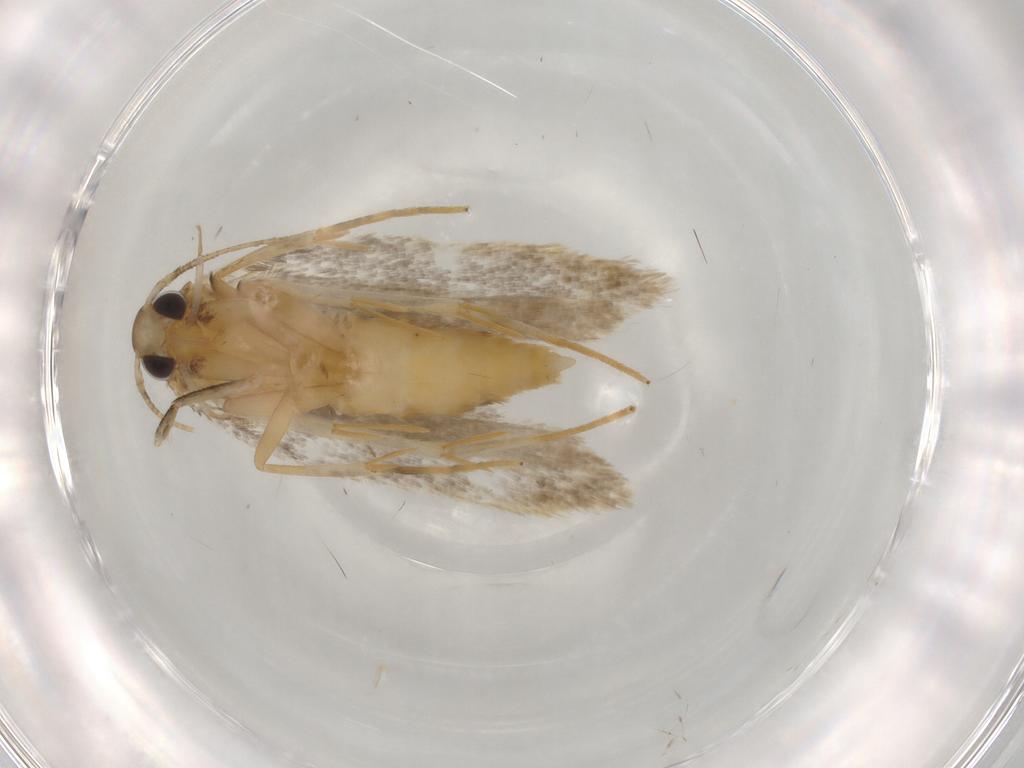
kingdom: Animalia
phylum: Arthropoda
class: Insecta
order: Lepidoptera
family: Autostichidae
